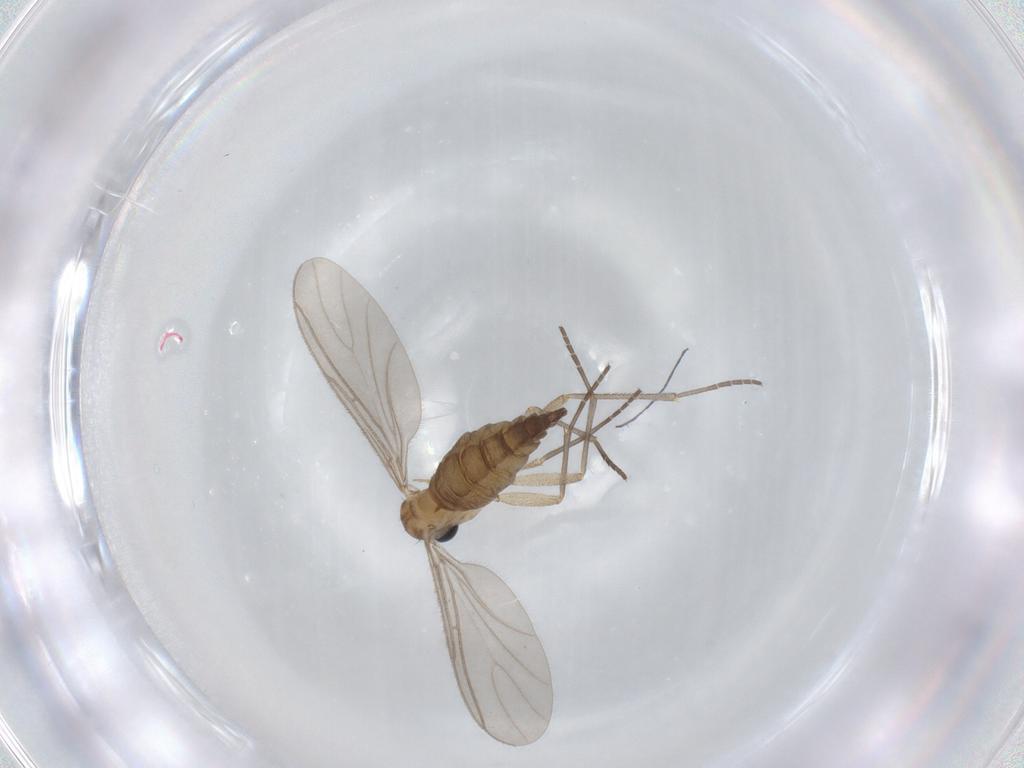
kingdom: Animalia
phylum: Arthropoda
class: Insecta
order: Diptera
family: Sciaridae
